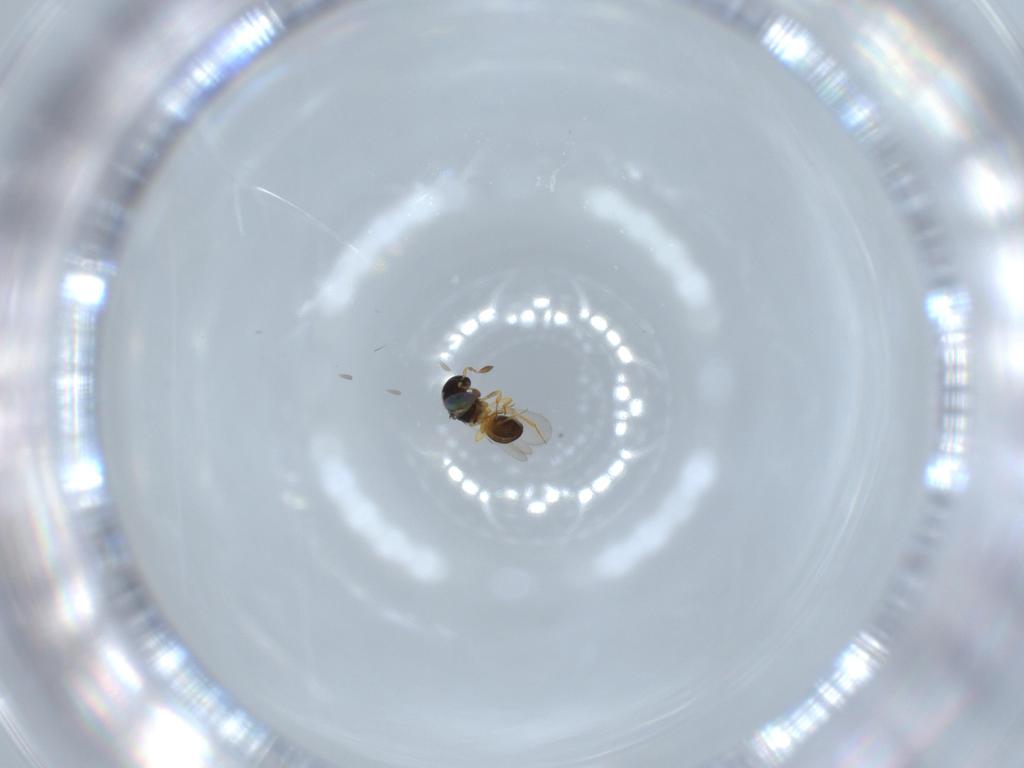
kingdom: Animalia
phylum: Arthropoda
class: Insecta
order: Hymenoptera
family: Scelionidae
